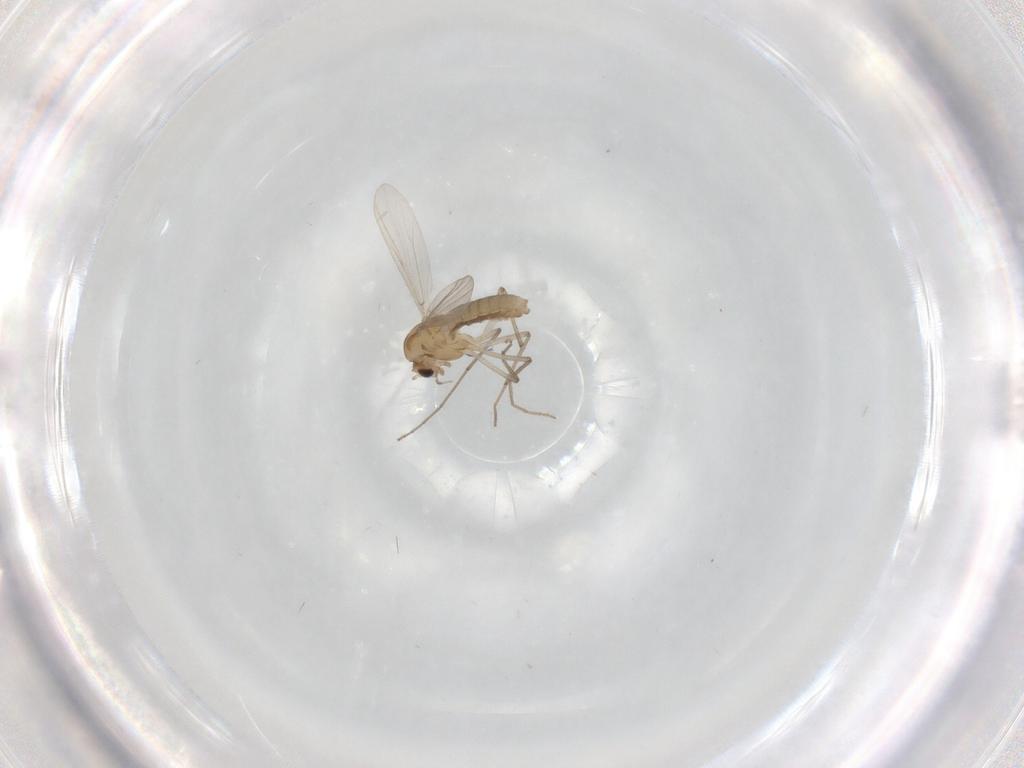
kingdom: Animalia
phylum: Arthropoda
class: Insecta
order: Diptera
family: Chironomidae
